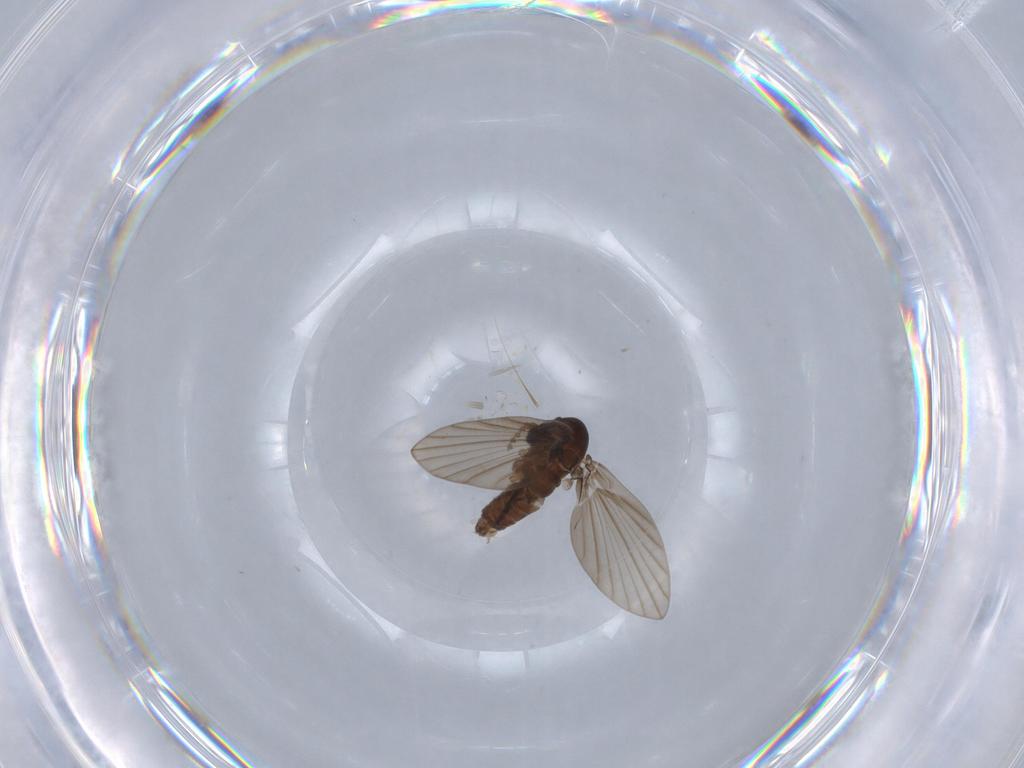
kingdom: Animalia
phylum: Arthropoda
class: Insecta
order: Diptera
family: Psychodidae
